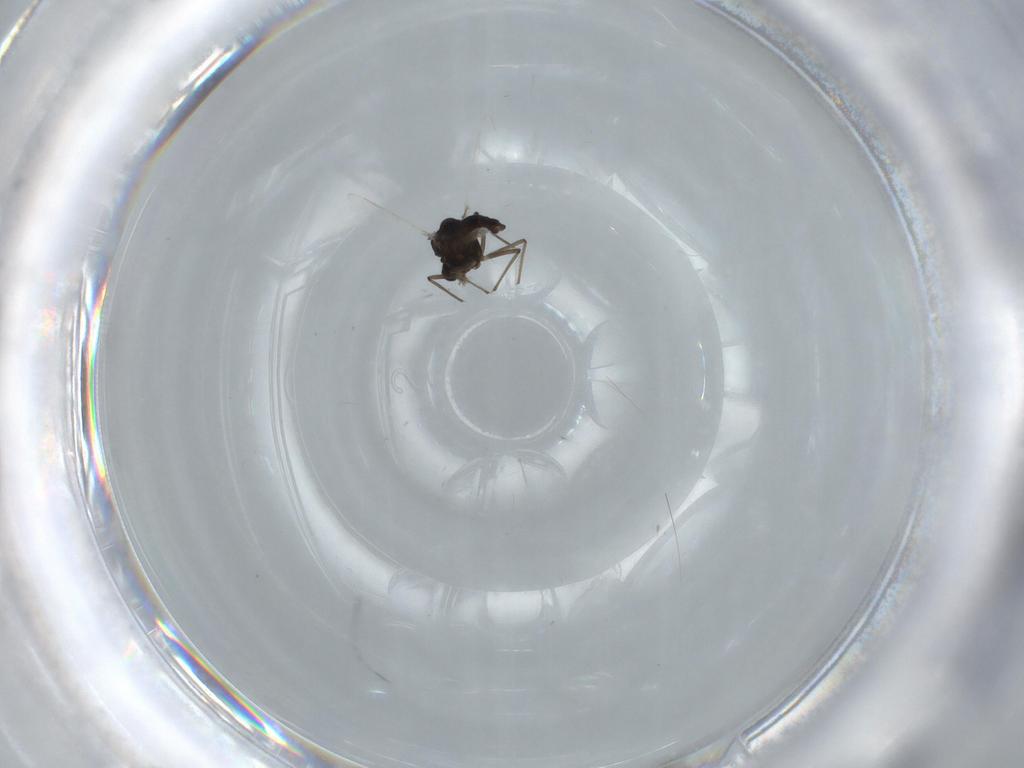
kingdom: Animalia
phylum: Arthropoda
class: Insecta
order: Diptera
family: Chironomidae
